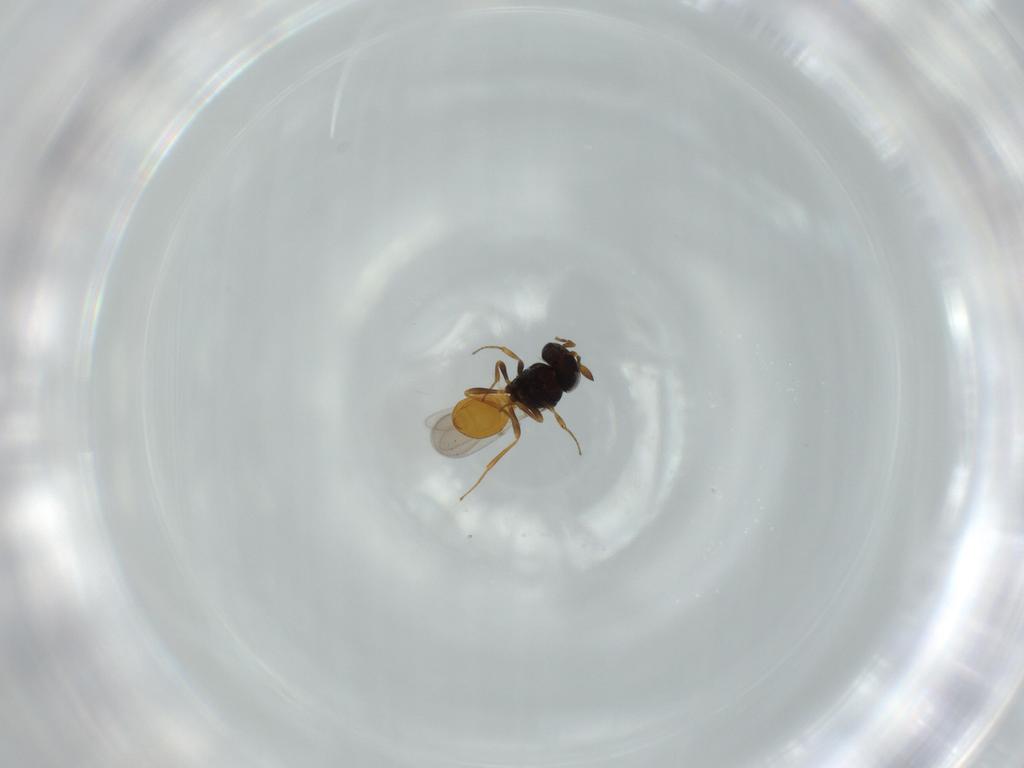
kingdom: Animalia
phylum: Arthropoda
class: Insecta
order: Hymenoptera
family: Scelionidae
